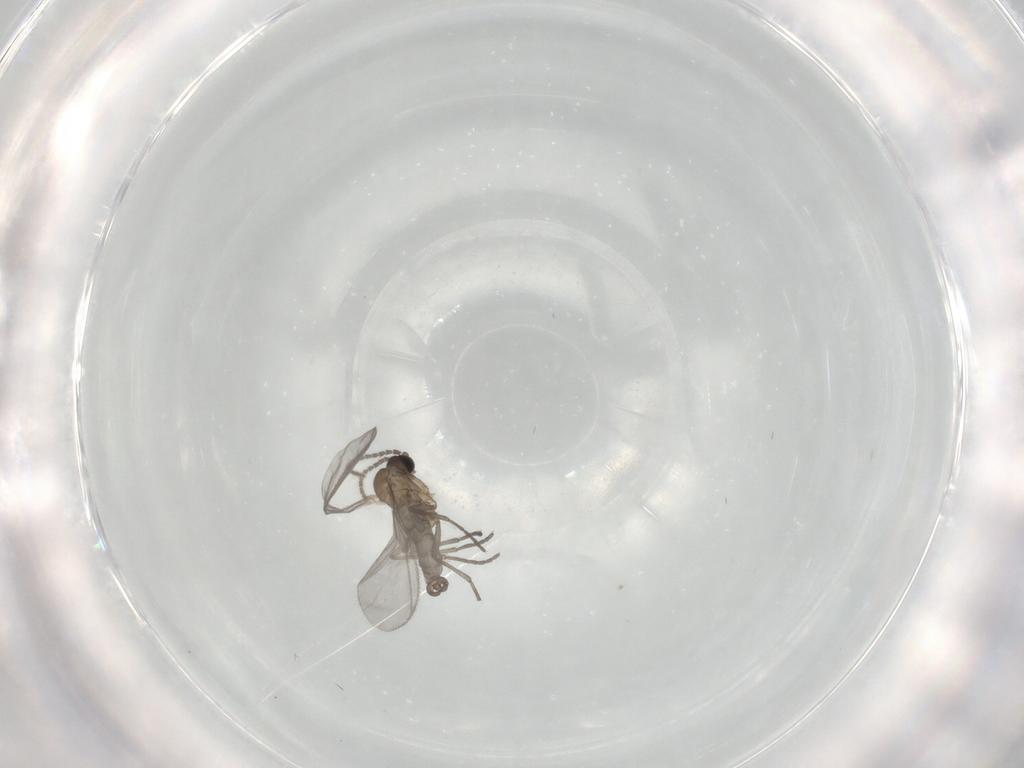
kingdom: Animalia
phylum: Arthropoda
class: Insecta
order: Diptera
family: Sciaridae
